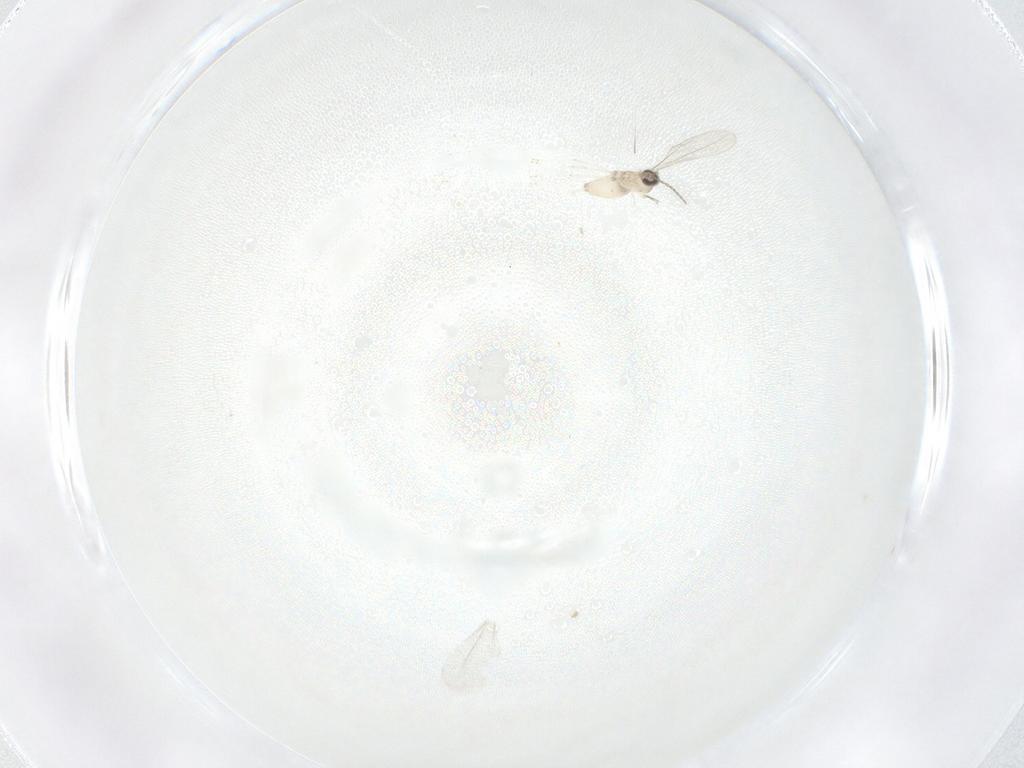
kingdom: Animalia
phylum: Arthropoda
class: Insecta
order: Diptera
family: Cecidomyiidae
